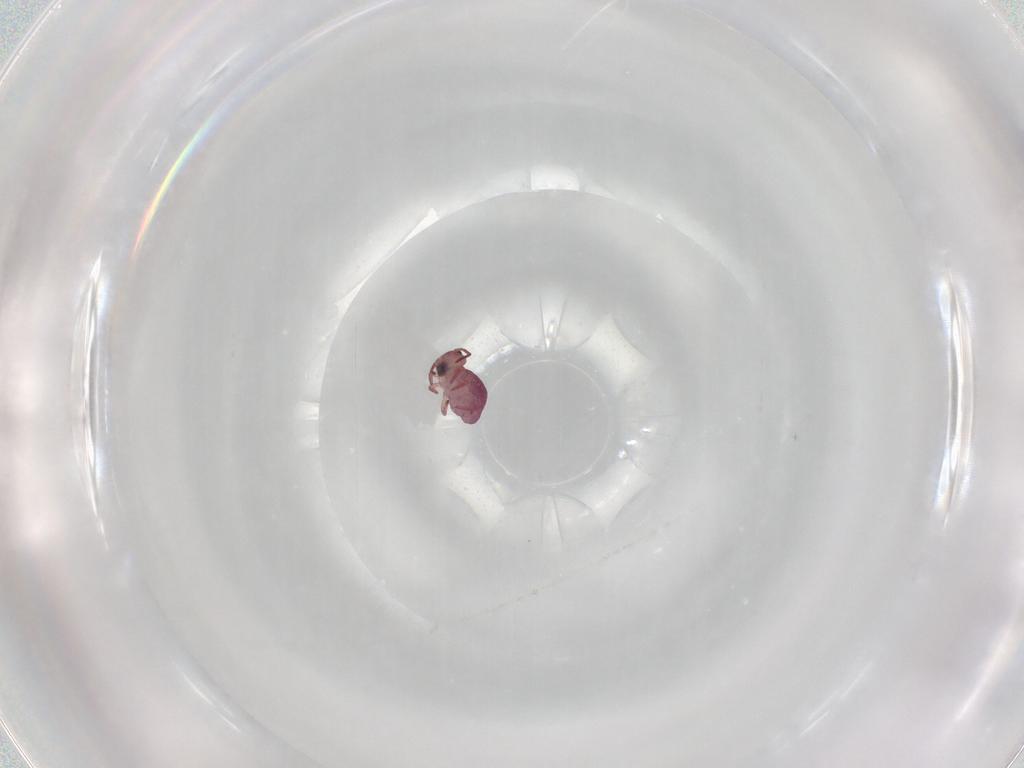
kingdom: Animalia
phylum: Arthropoda
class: Collembola
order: Symphypleona
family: Sminthurididae
